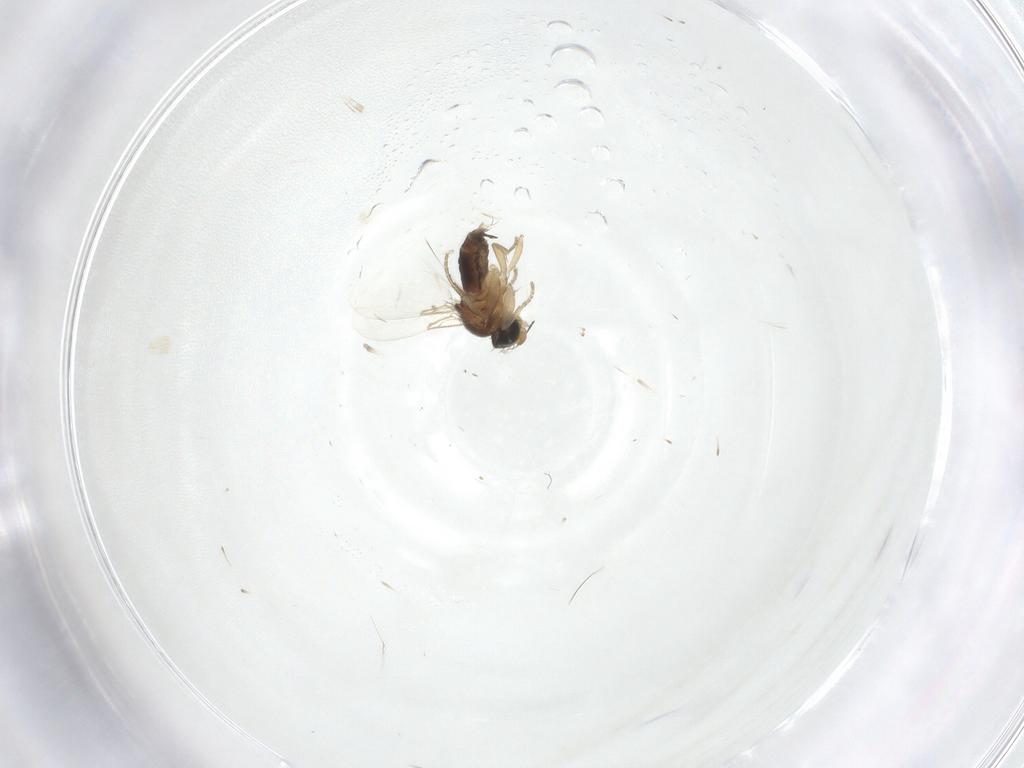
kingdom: Animalia
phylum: Arthropoda
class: Insecta
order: Diptera
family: Phoridae
